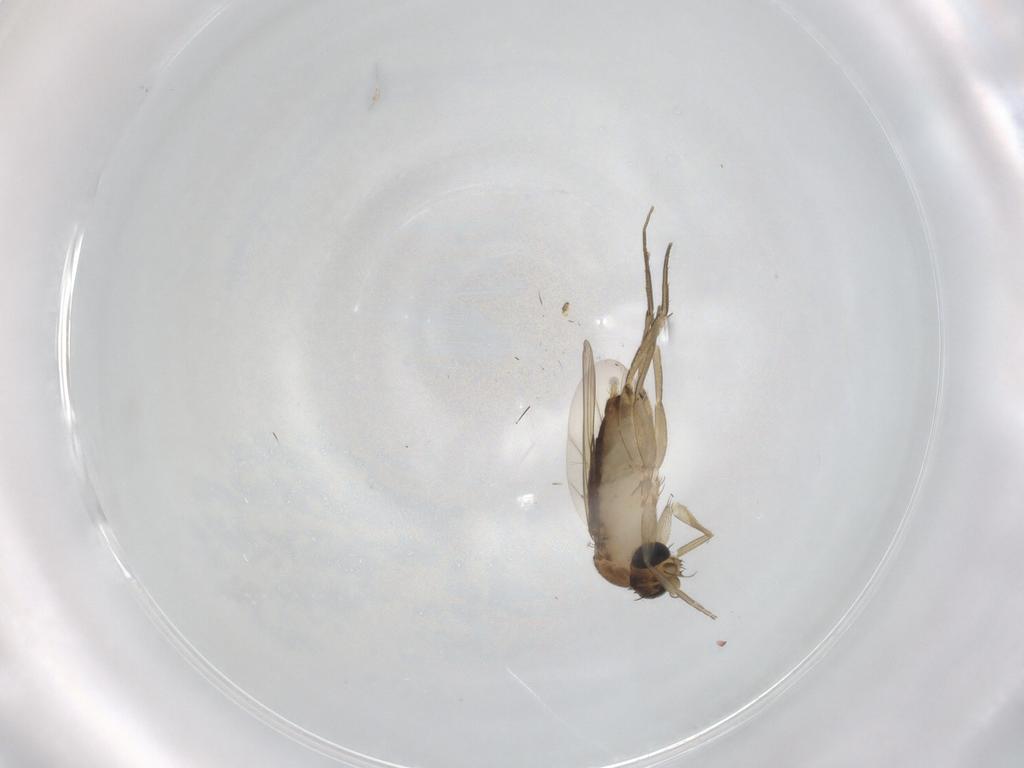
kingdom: Animalia
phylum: Arthropoda
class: Insecta
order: Diptera
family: Phoridae
